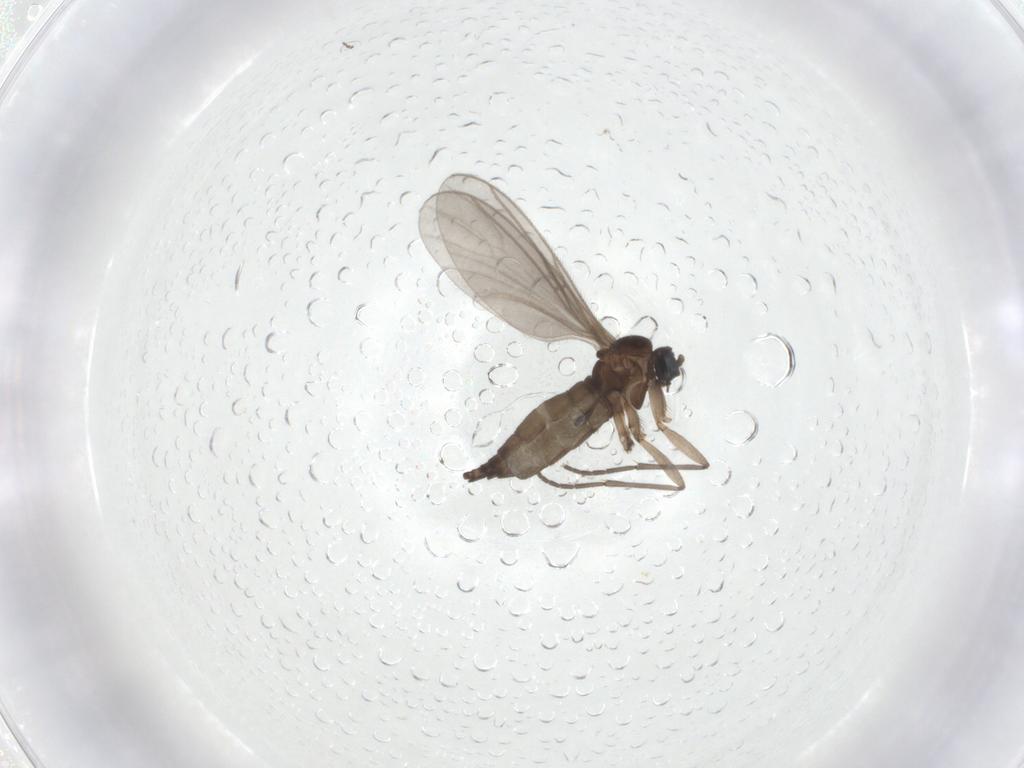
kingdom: Animalia
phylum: Arthropoda
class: Insecta
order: Diptera
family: Sciaridae
